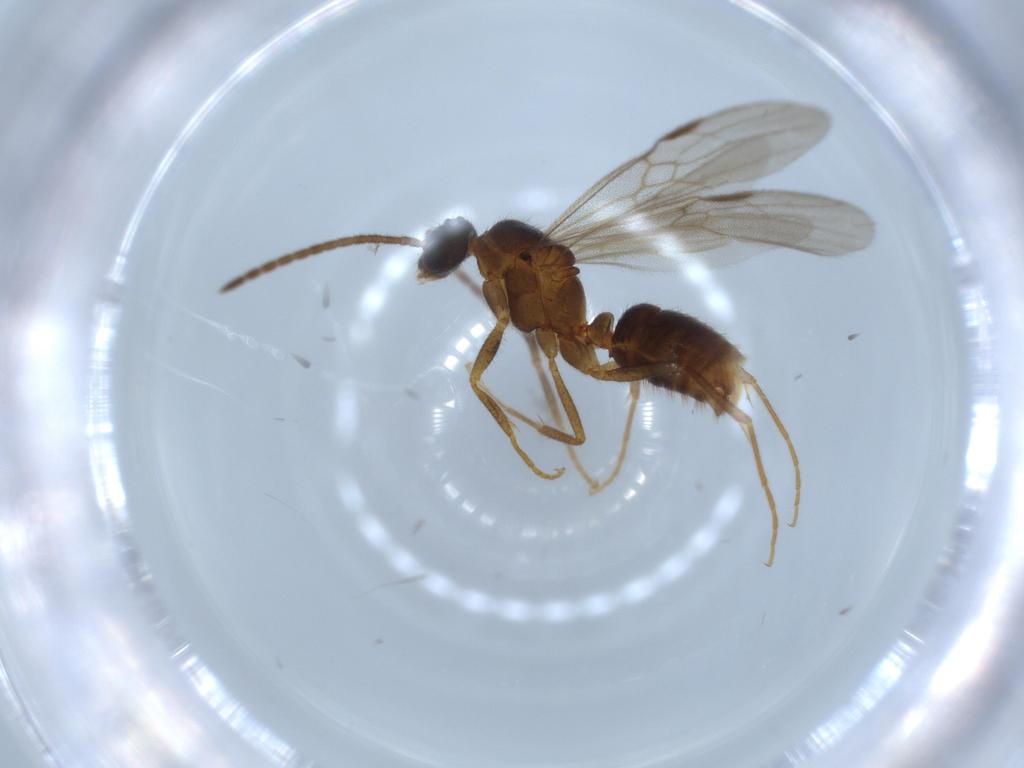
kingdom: Animalia
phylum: Arthropoda
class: Insecta
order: Hymenoptera
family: Formicidae
